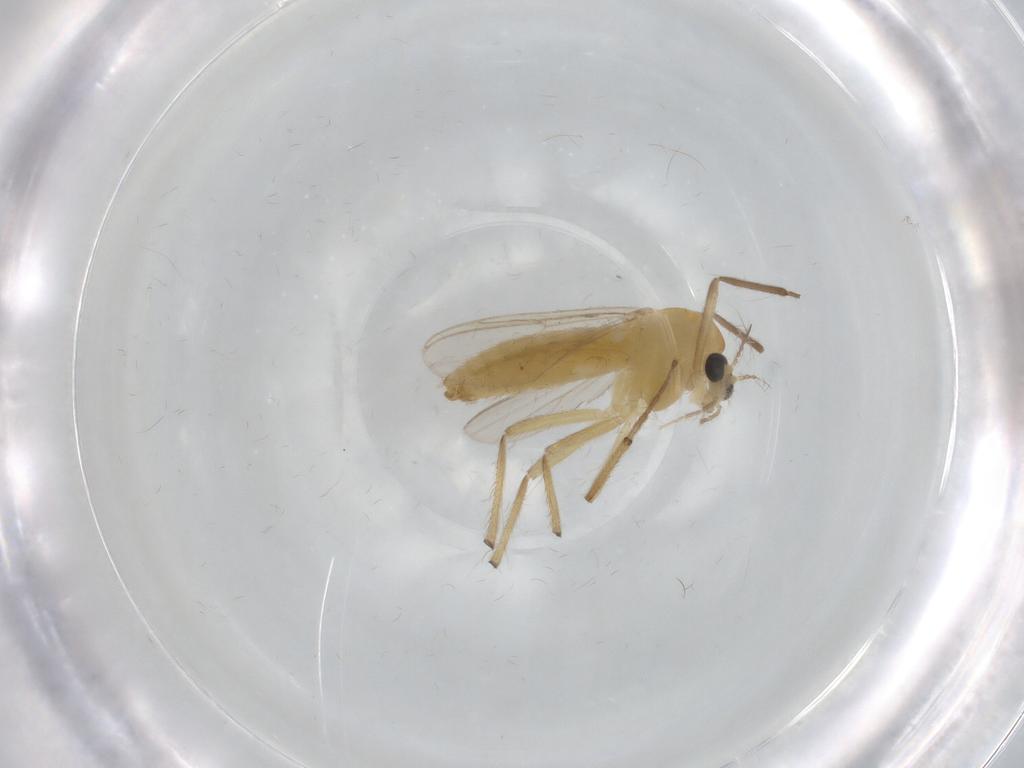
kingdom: Animalia
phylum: Arthropoda
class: Insecta
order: Diptera
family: Chironomidae
